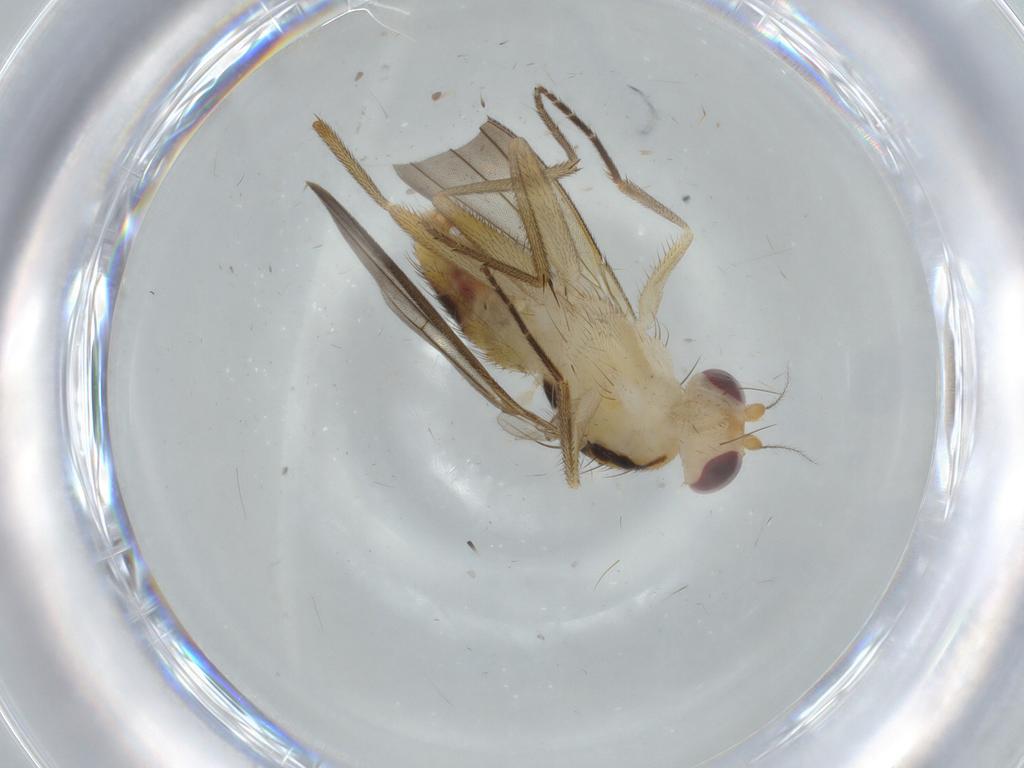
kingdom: Animalia
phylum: Arthropoda
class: Insecta
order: Diptera
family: Clusiidae
